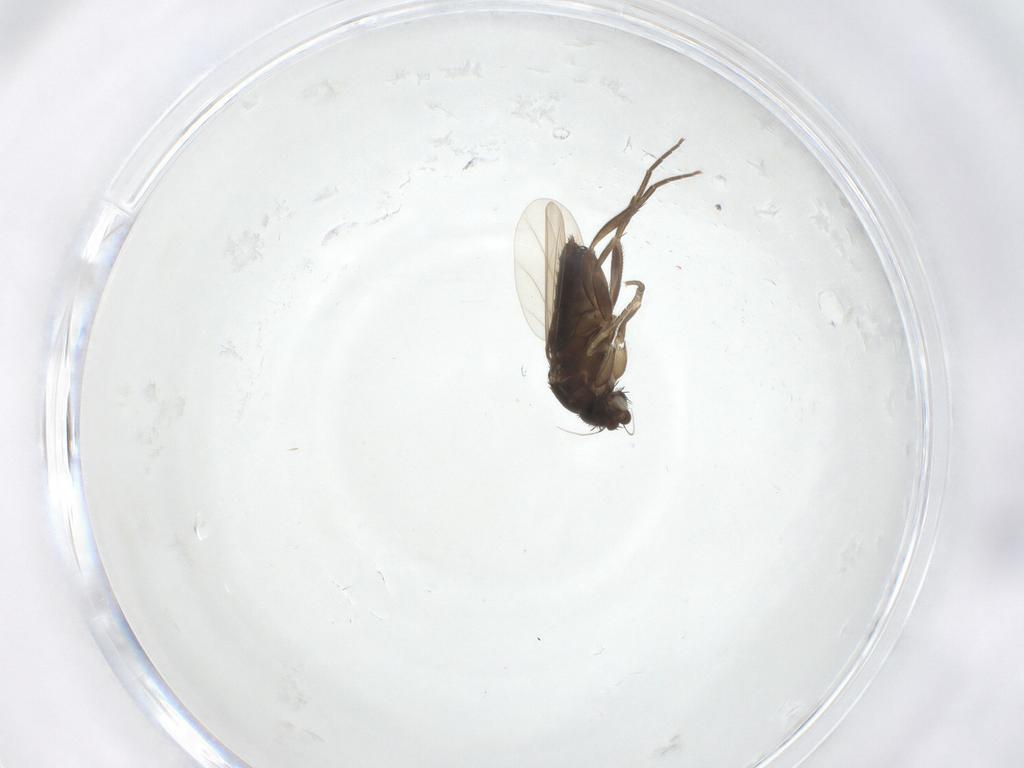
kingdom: Animalia
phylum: Arthropoda
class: Insecta
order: Diptera
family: Phoridae
